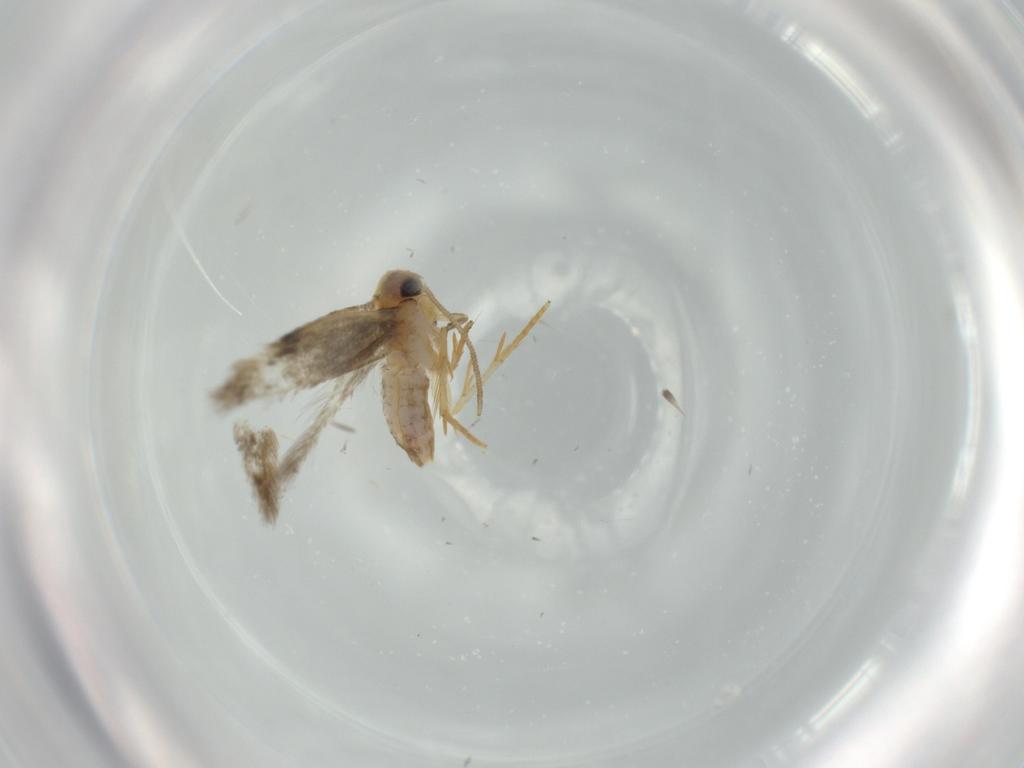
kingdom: Animalia
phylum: Arthropoda
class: Insecta
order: Lepidoptera
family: Nepticulidae
